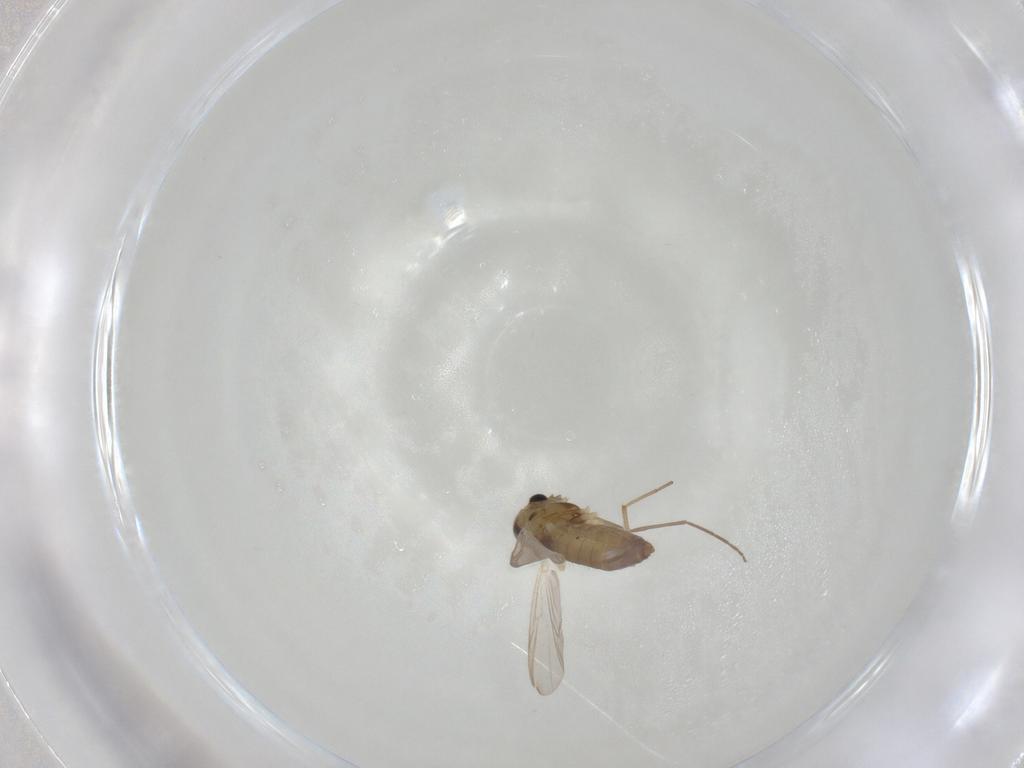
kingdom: Animalia
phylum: Arthropoda
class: Insecta
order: Diptera
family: Chironomidae
